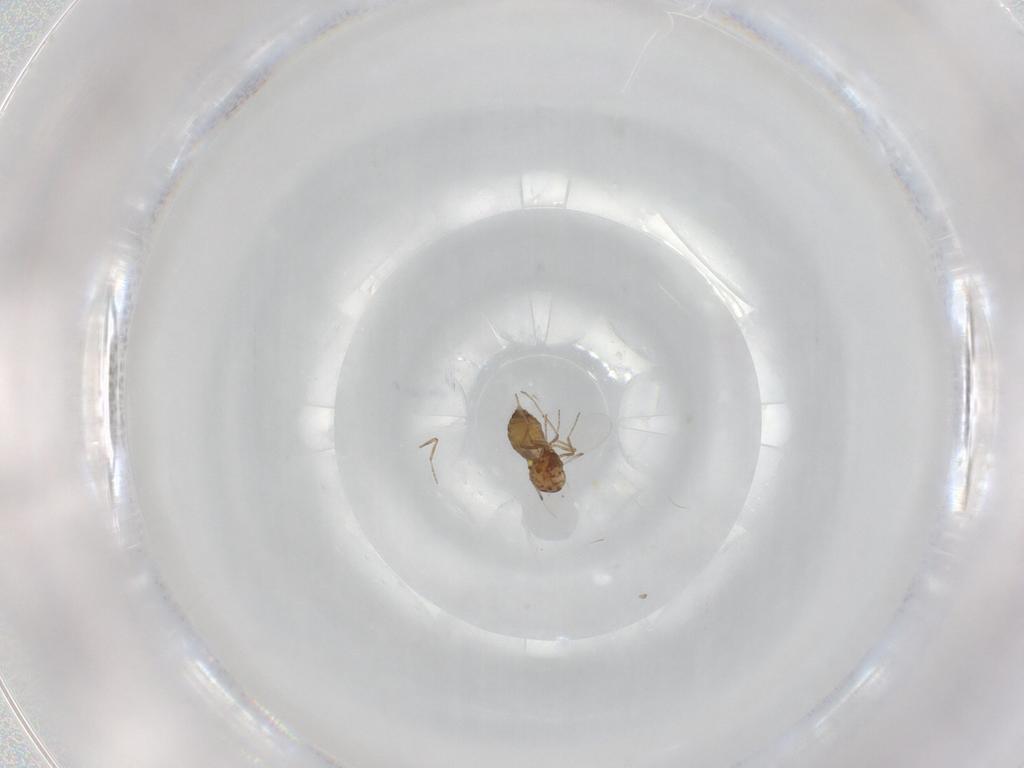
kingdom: Animalia
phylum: Arthropoda
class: Insecta
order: Diptera
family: Ceratopogonidae
